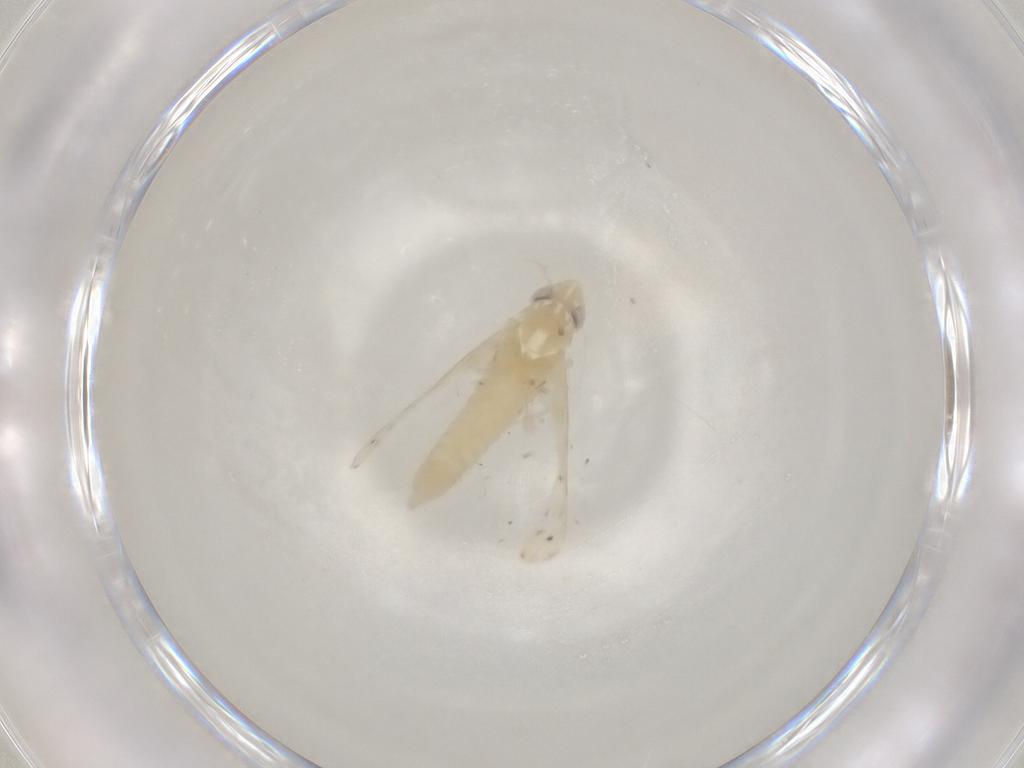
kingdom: Animalia
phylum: Arthropoda
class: Insecta
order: Hemiptera
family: Cicadellidae
